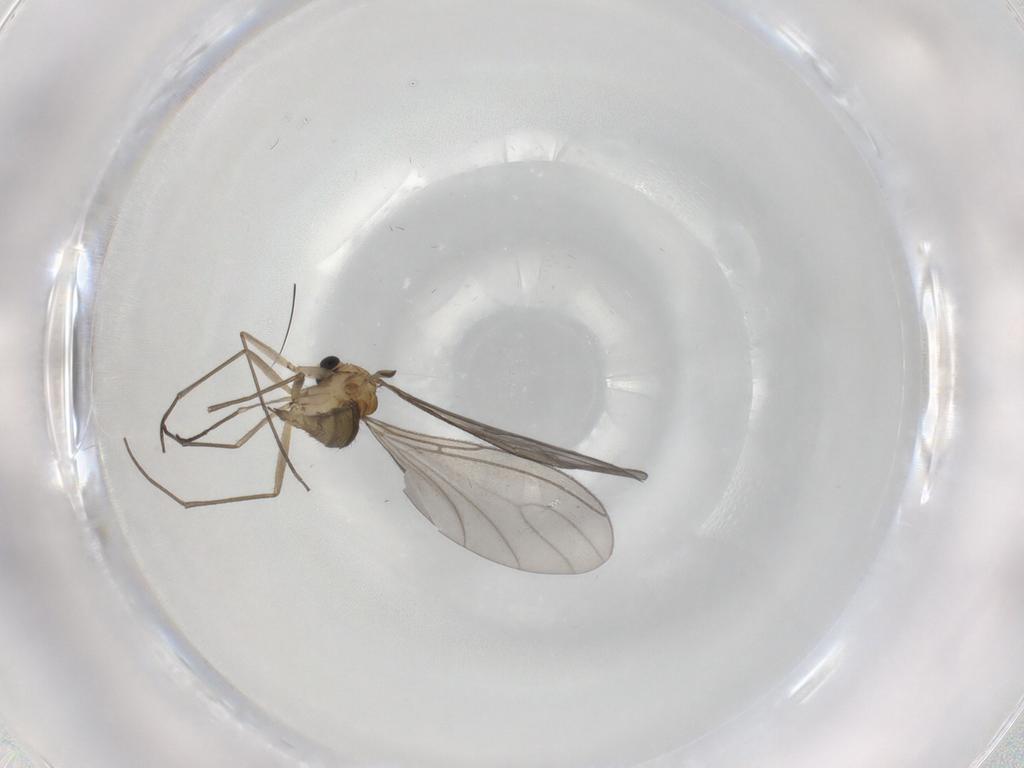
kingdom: Animalia
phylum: Arthropoda
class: Insecta
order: Diptera
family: Sciaridae
